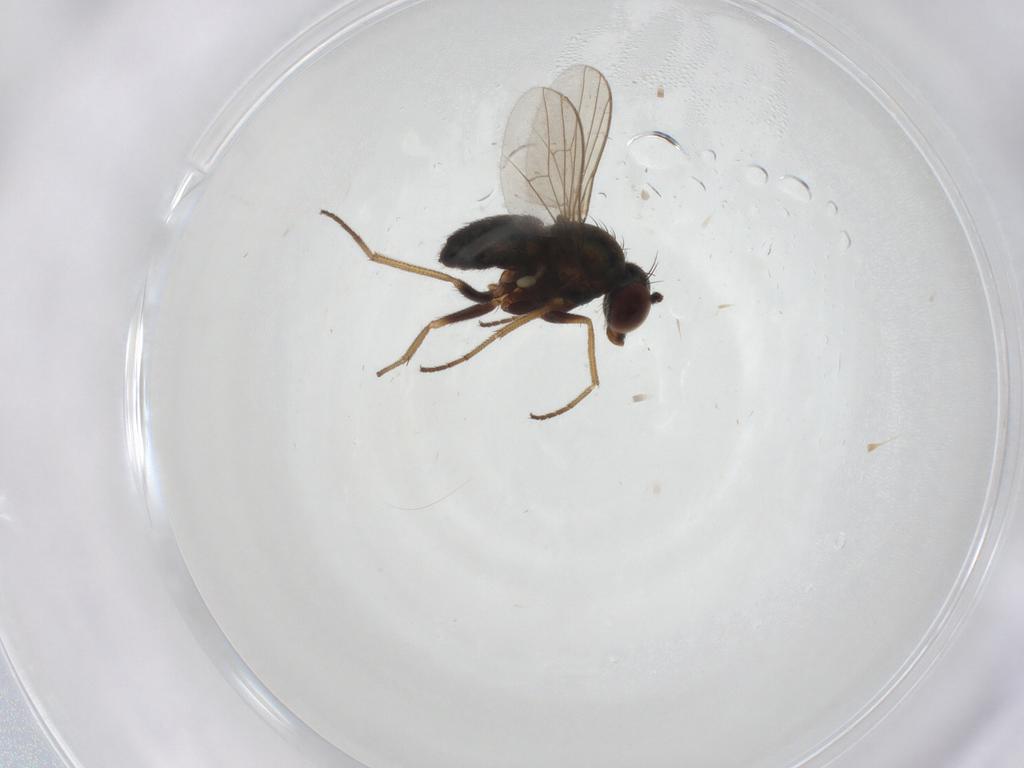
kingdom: Animalia
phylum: Arthropoda
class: Insecta
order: Diptera
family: Dolichopodidae
